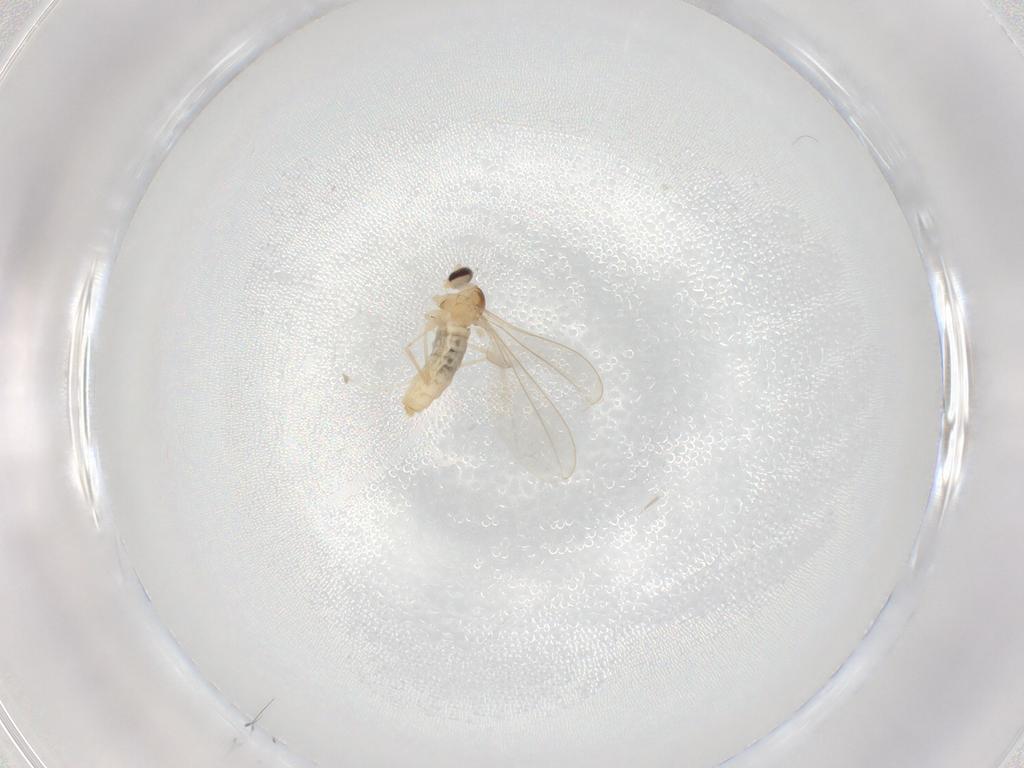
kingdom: Animalia
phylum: Arthropoda
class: Insecta
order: Diptera
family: Cecidomyiidae
